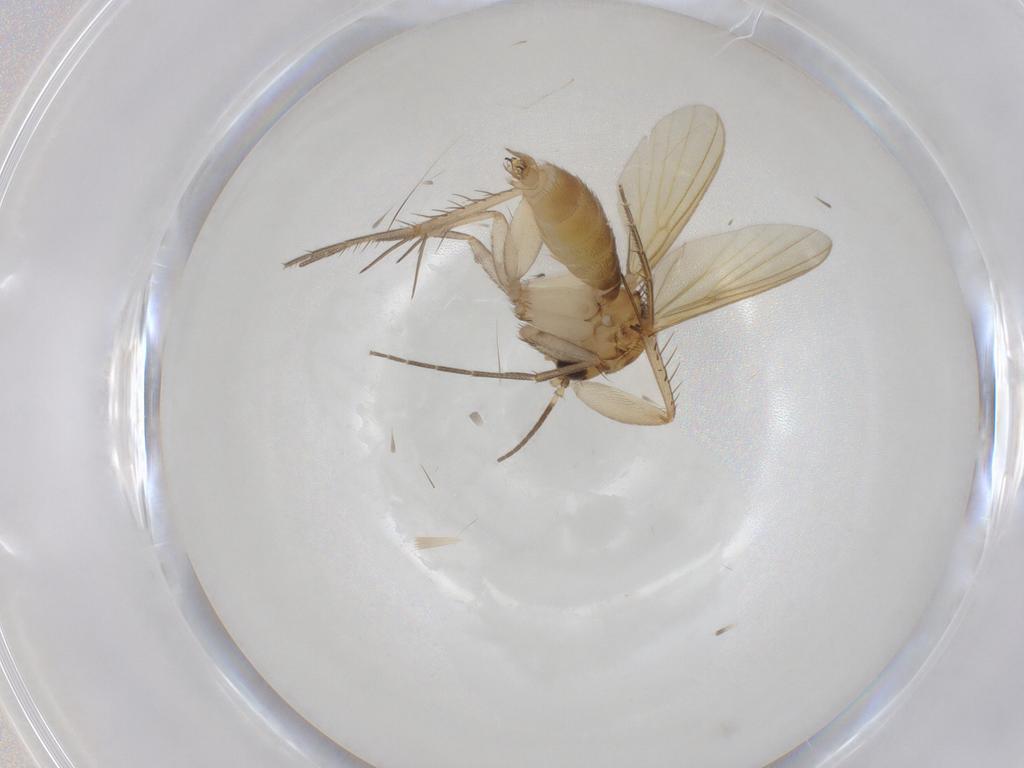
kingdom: Animalia
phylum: Arthropoda
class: Insecta
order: Diptera
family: Mycetophilidae
